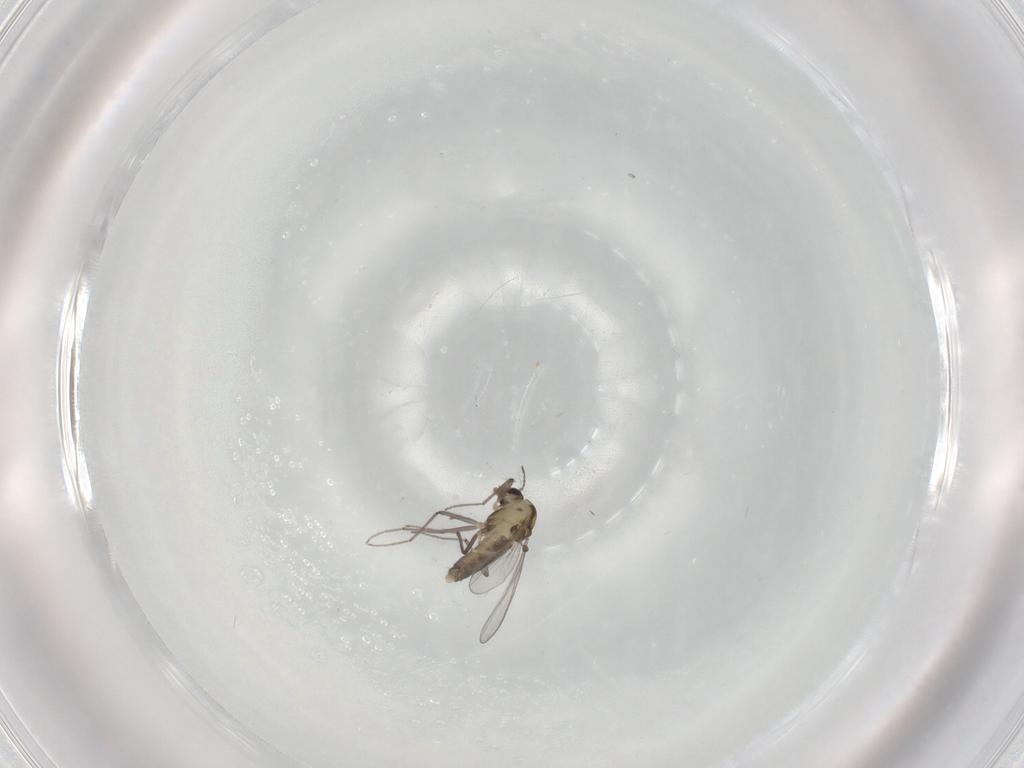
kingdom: Animalia
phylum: Arthropoda
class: Insecta
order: Diptera
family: Chironomidae
